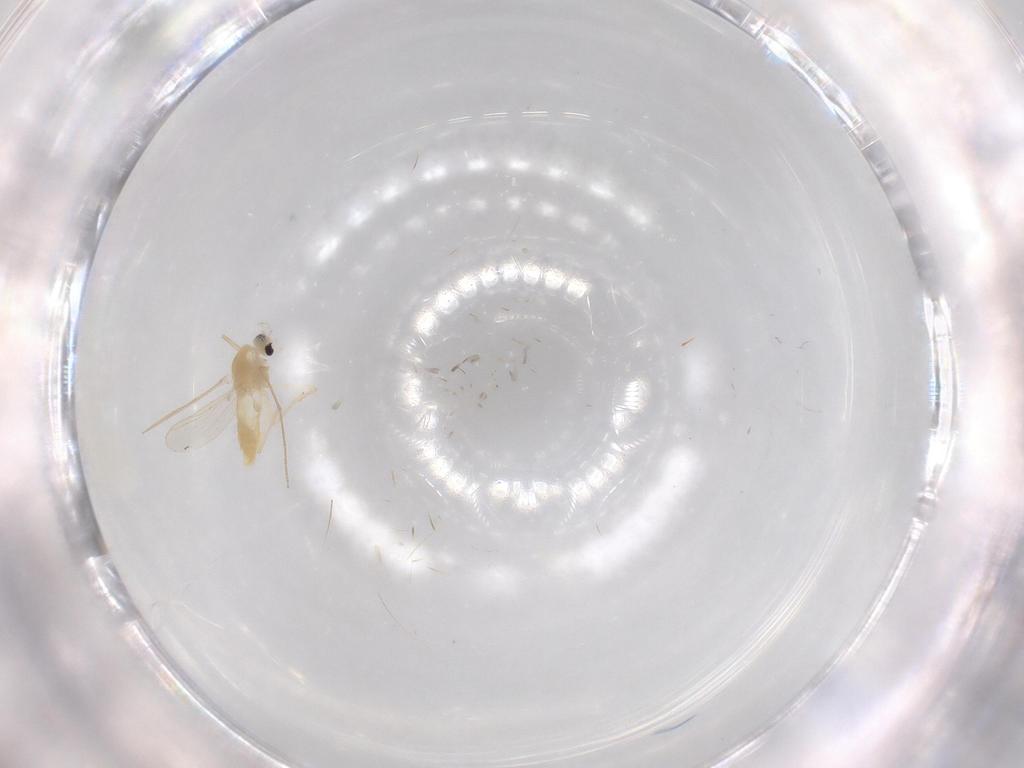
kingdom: Animalia
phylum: Arthropoda
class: Insecta
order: Diptera
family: Chironomidae
